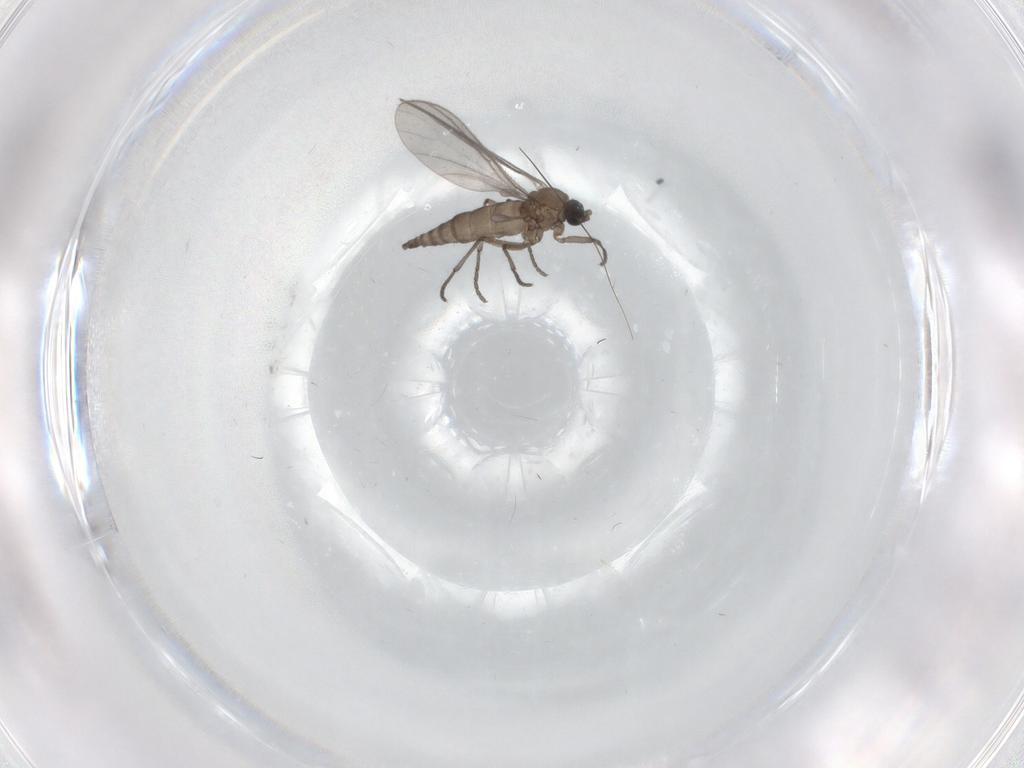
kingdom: Animalia
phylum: Arthropoda
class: Insecta
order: Diptera
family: Sciaridae
